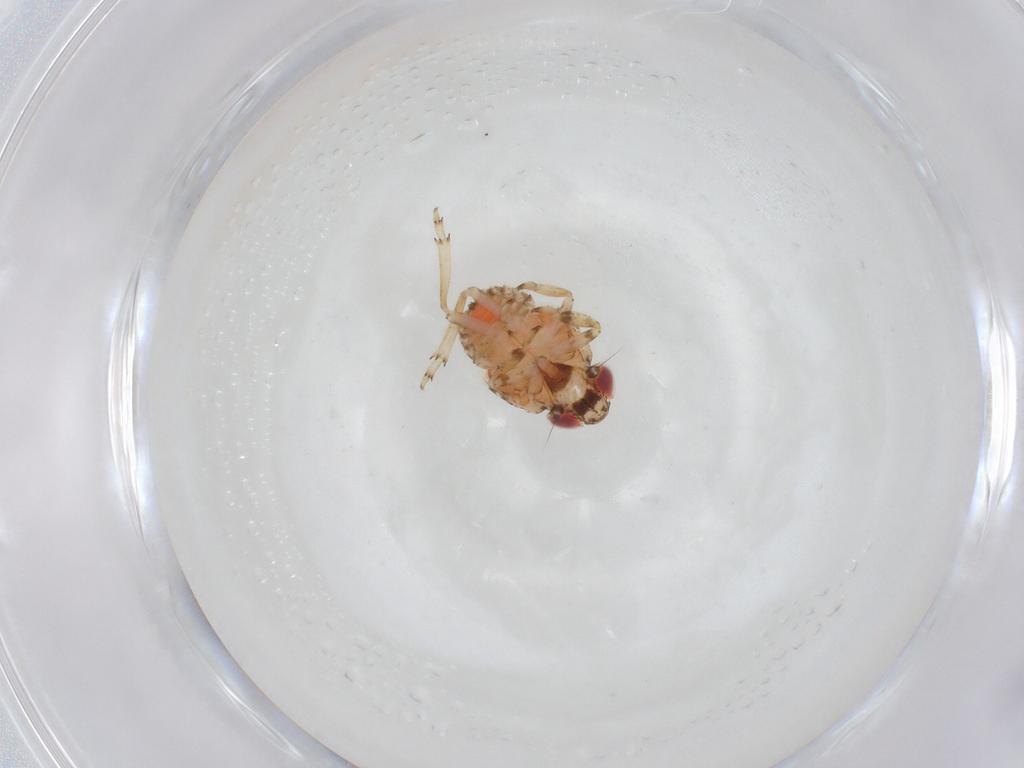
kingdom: Animalia
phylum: Arthropoda
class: Insecta
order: Hemiptera
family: Issidae
